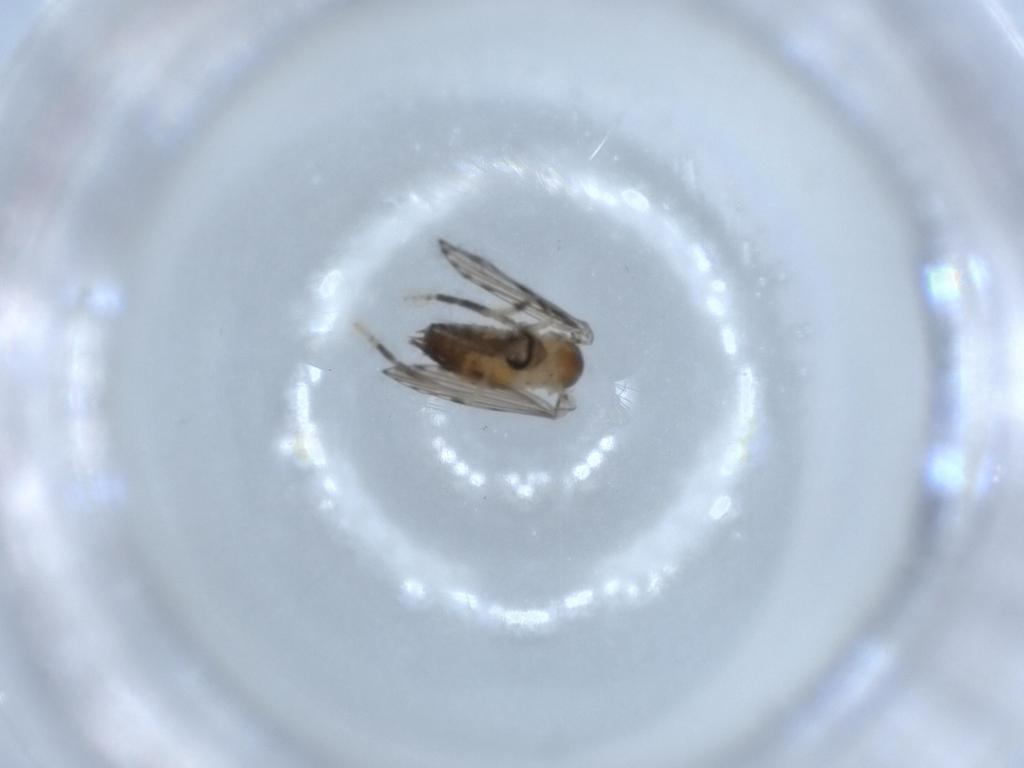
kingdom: Animalia
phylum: Arthropoda
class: Insecta
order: Diptera
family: Psychodidae
